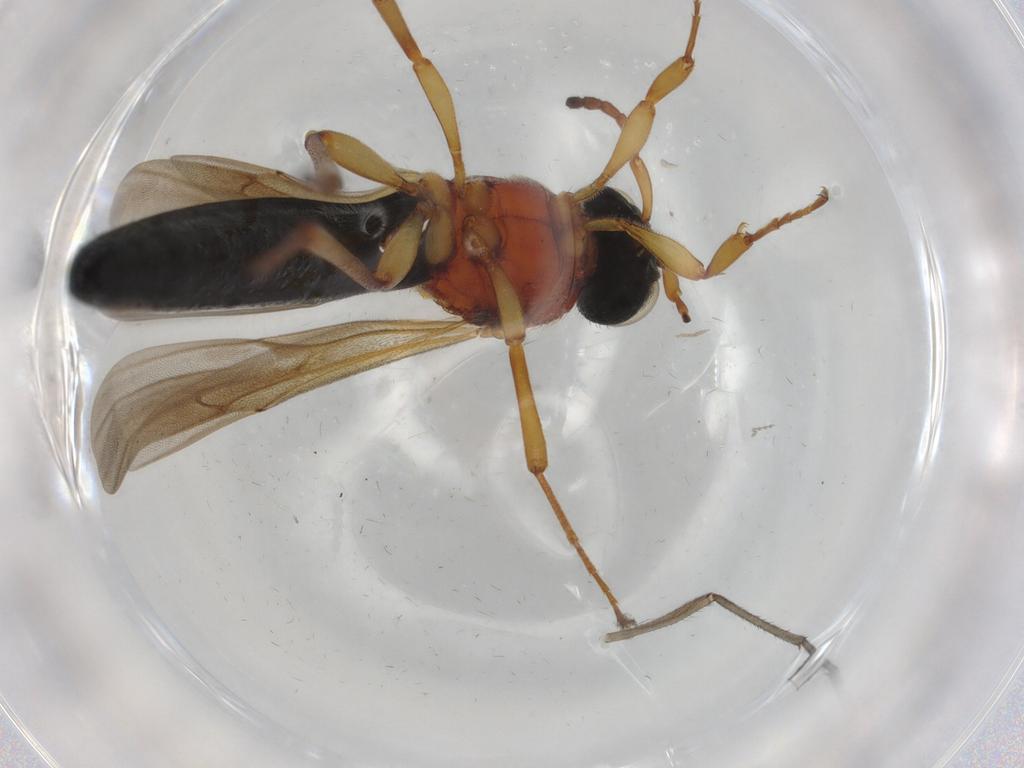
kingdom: Animalia
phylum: Arthropoda
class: Insecta
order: Hymenoptera
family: Scelionidae
